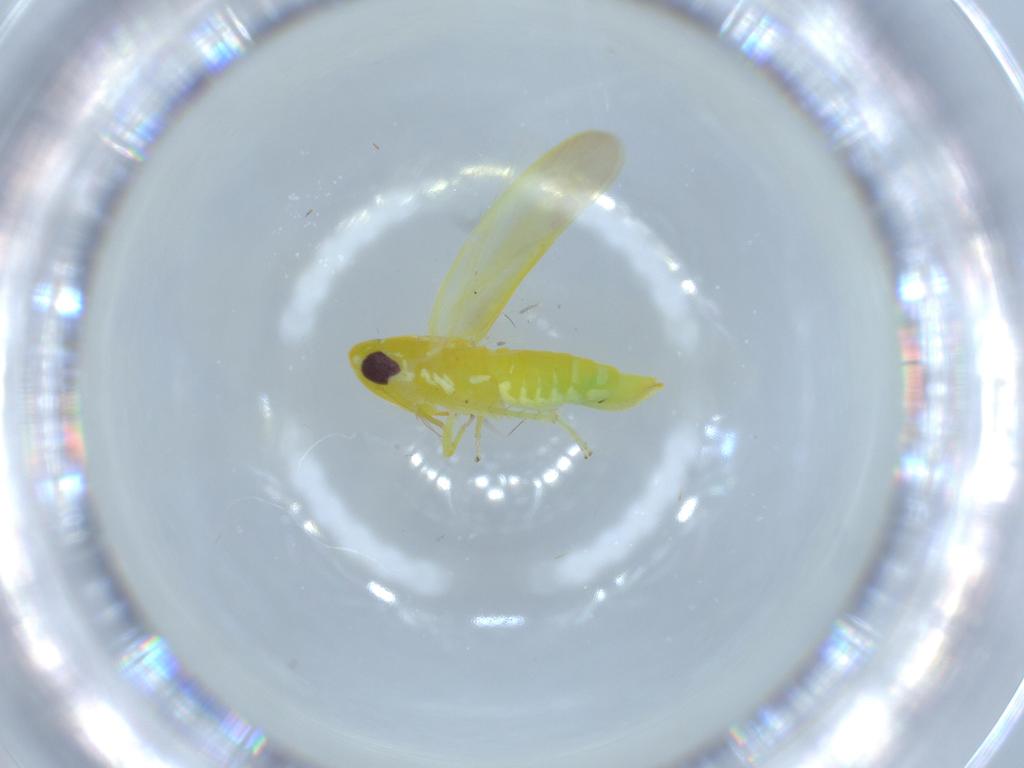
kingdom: Animalia
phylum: Arthropoda
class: Insecta
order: Hemiptera
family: Cicadellidae
